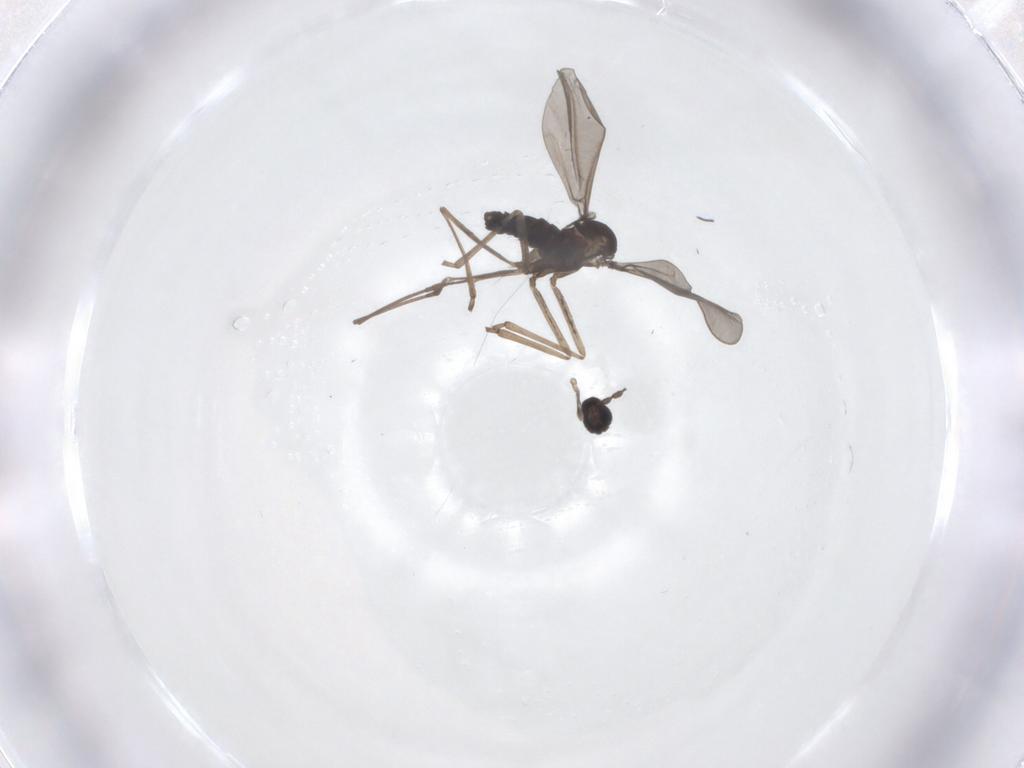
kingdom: Animalia
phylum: Arthropoda
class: Insecta
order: Diptera
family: Cecidomyiidae
